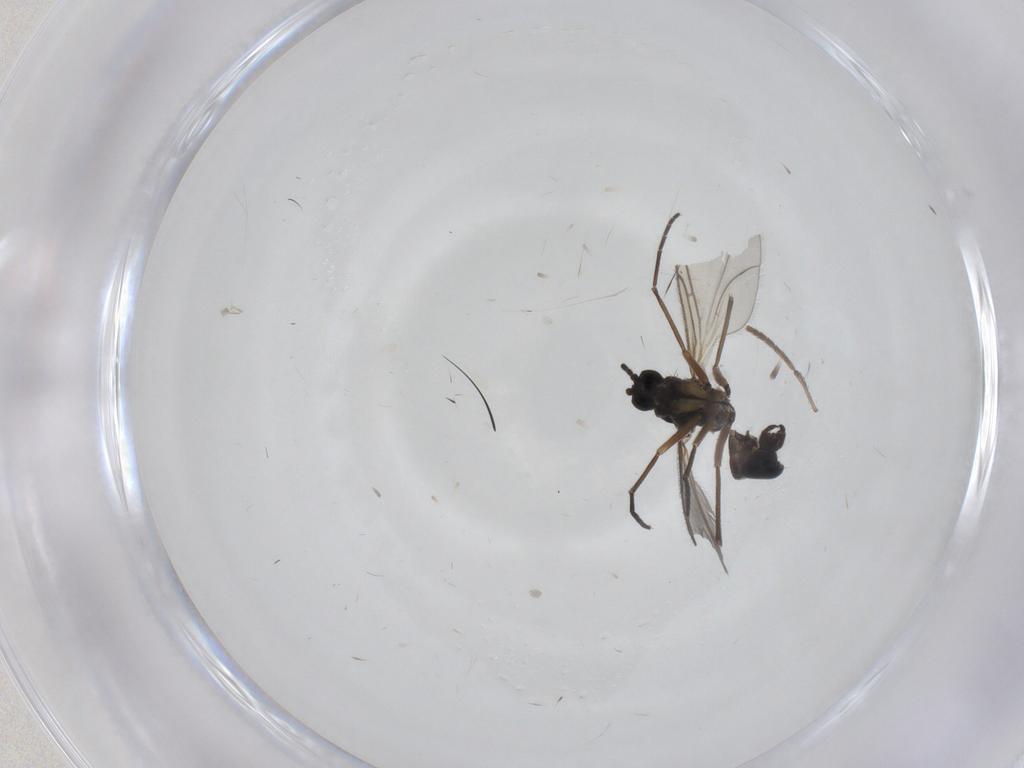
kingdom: Animalia
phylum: Arthropoda
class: Insecta
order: Diptera
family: Sciaridae
